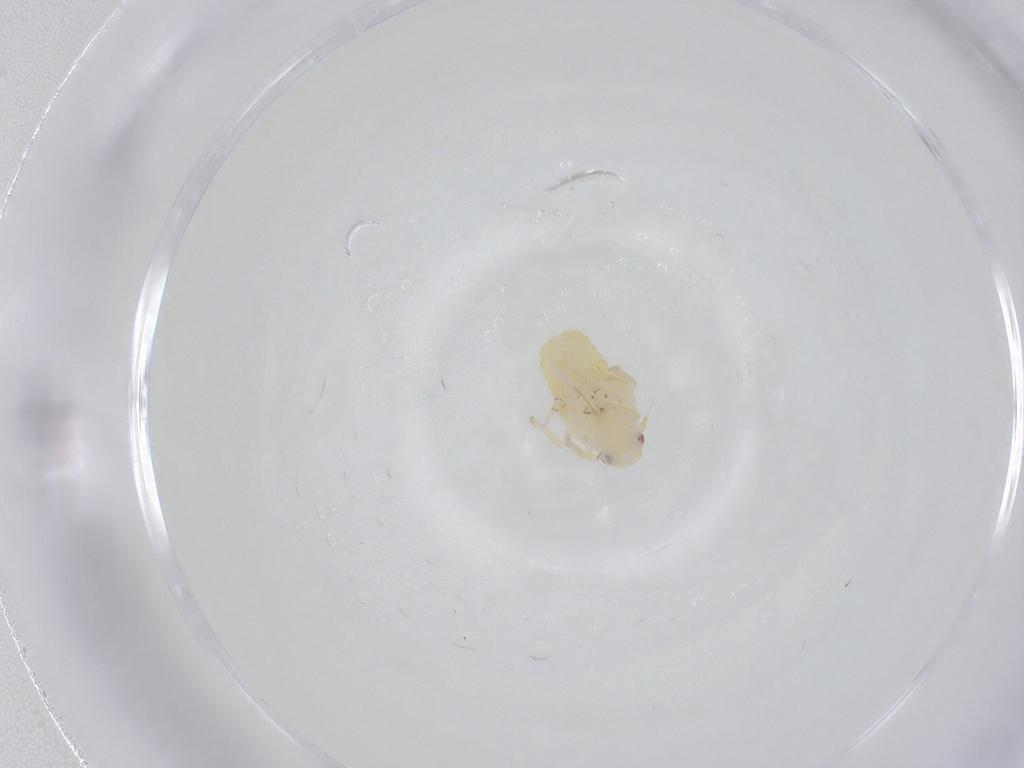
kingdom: Animalia
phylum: Arthropoda
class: Insecta
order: Hemiptera
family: Fulgoroidea_incertae_sedis
